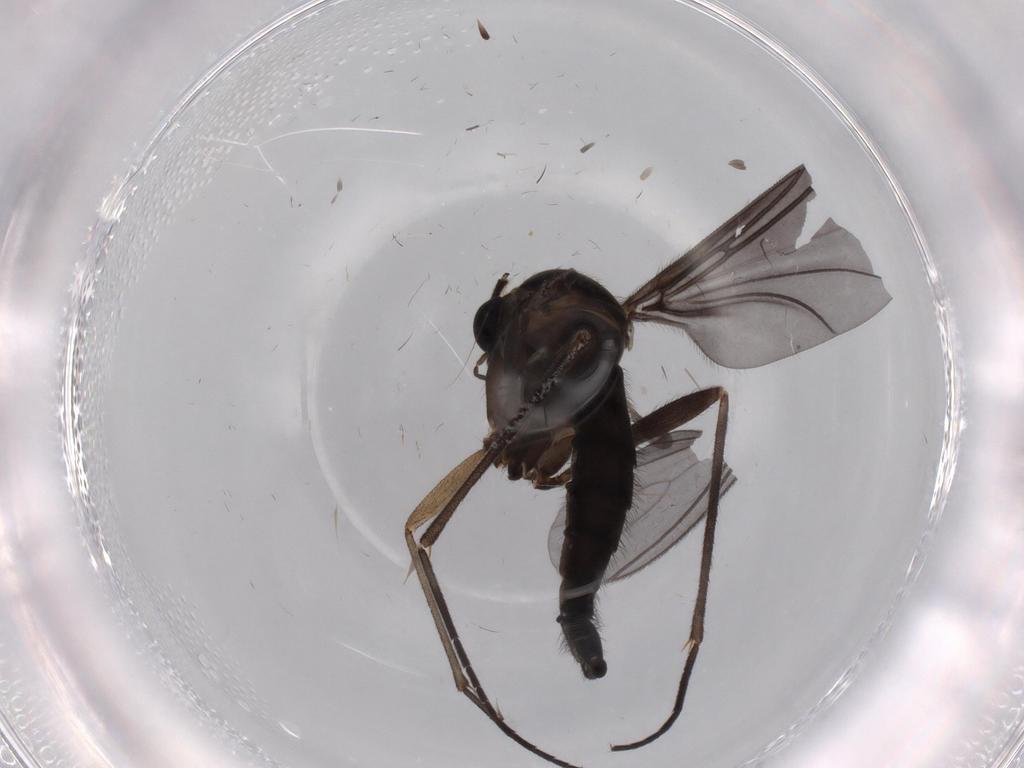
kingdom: Animalia
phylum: Arthropoda
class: Insecta
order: Diptera
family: Phoridae
